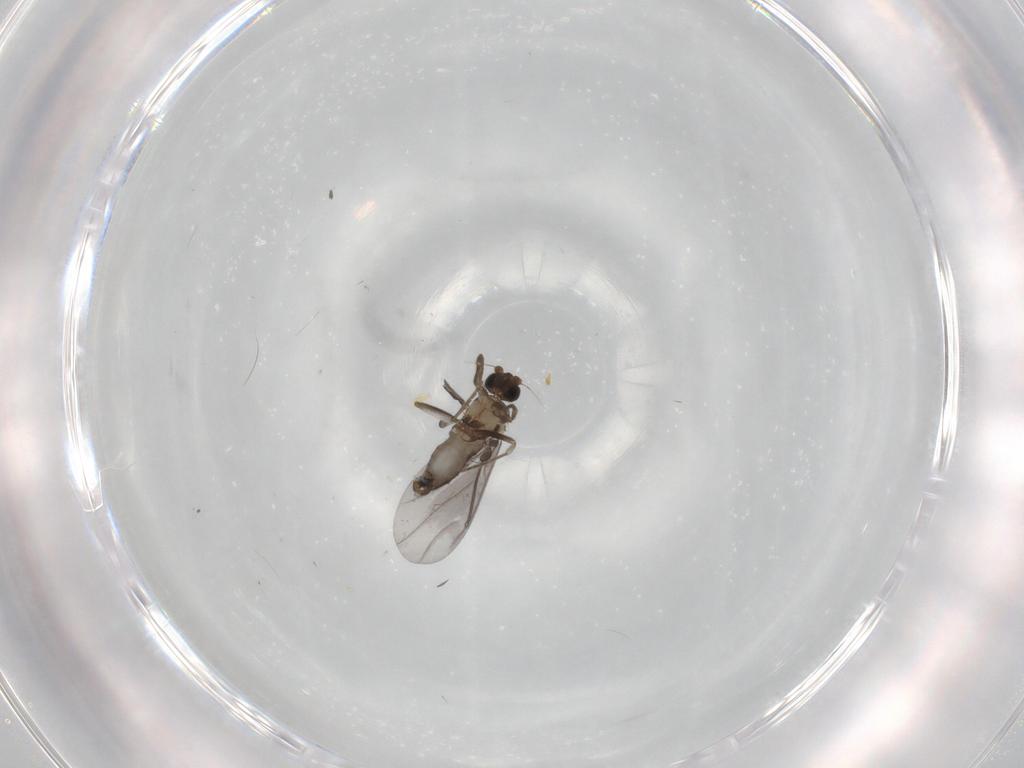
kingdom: Animalia
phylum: Arthropoda
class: Insecta
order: Diptera
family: Phoridae
